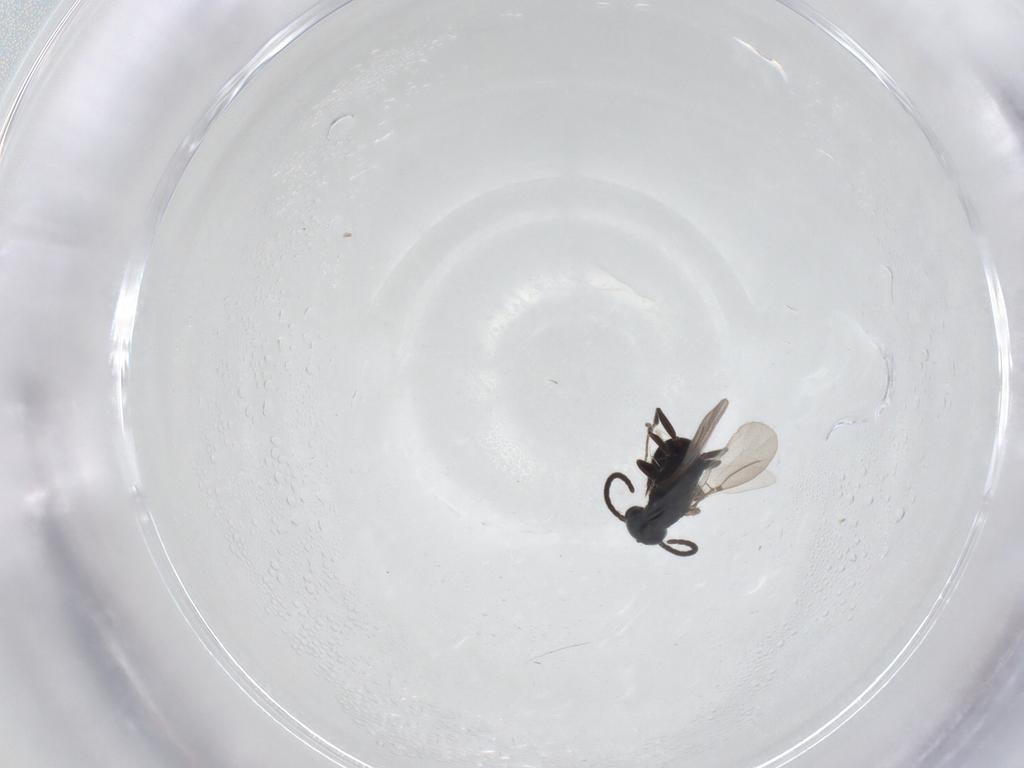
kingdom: Animalia
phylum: Arthropoda
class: Insecta
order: Hymenoptera
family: Bethylidae
